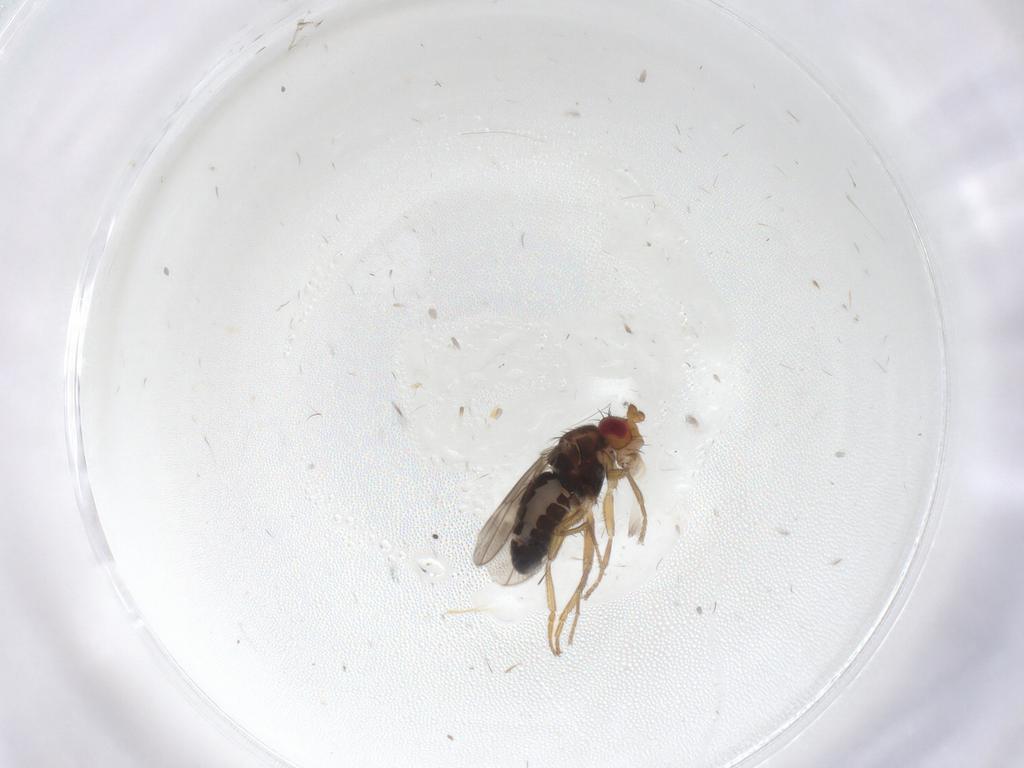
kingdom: Animalia
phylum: Arthropoda
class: Insecta
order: Diptera
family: Sphaeroceridae
